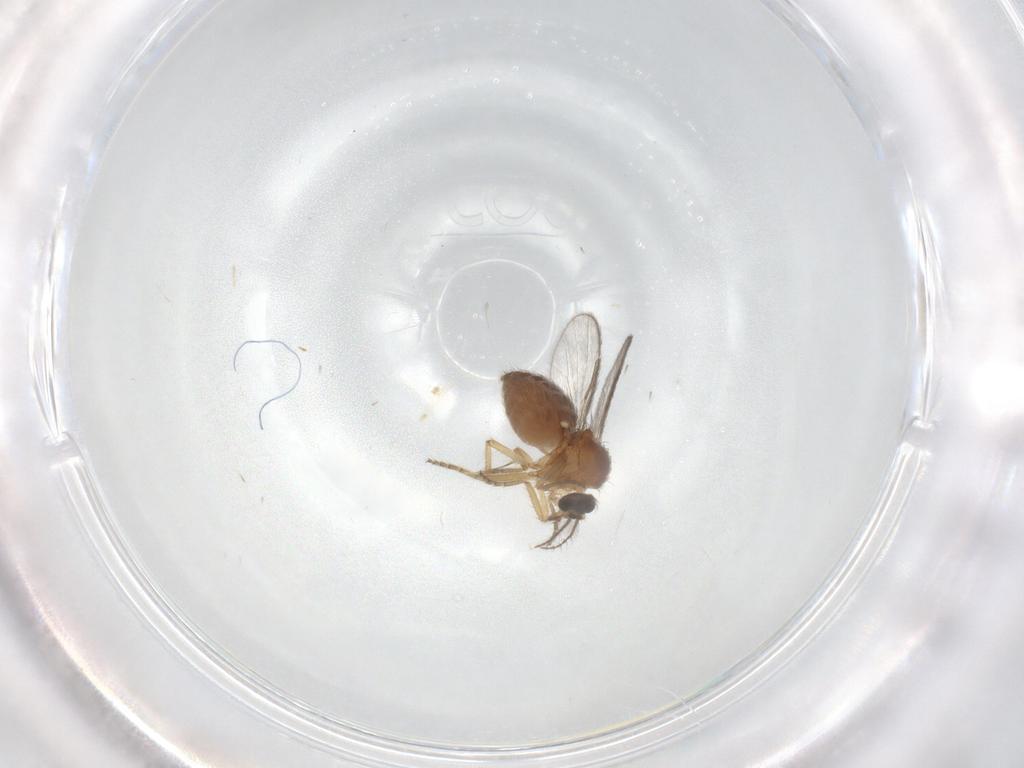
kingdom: Animalia
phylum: Arthropoda
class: Insecta
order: Diptera
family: Ceratopogonidae
